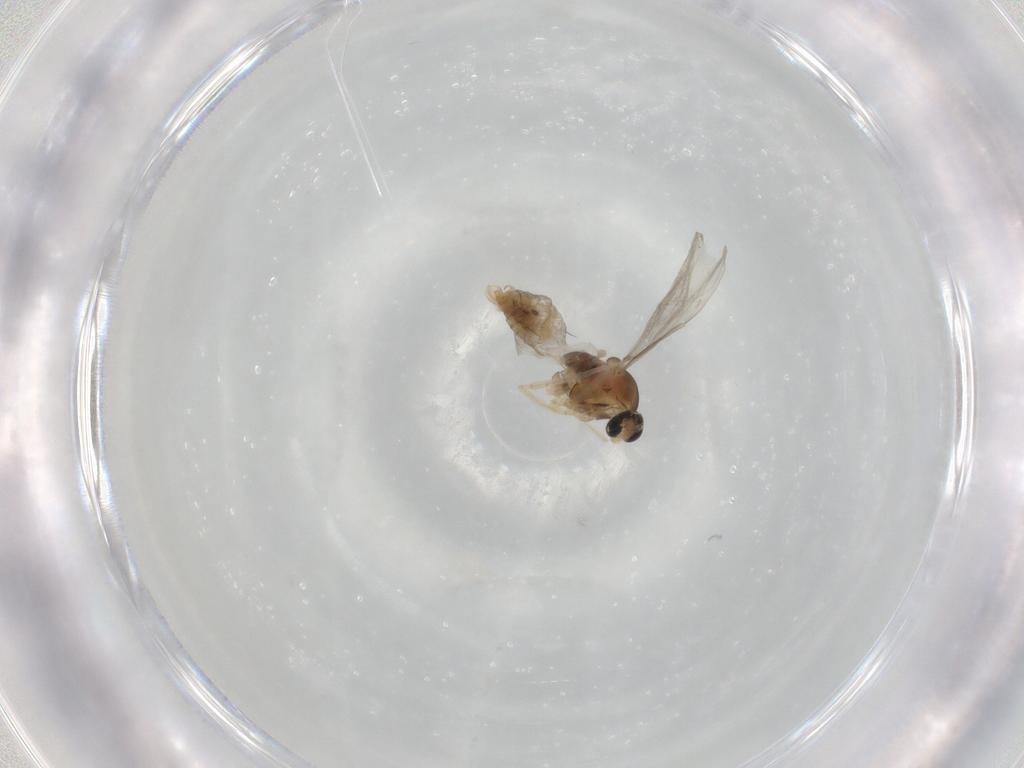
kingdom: Animalia
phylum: Arthropoda
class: Insecta
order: Diptera
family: Cecidomyiidae
